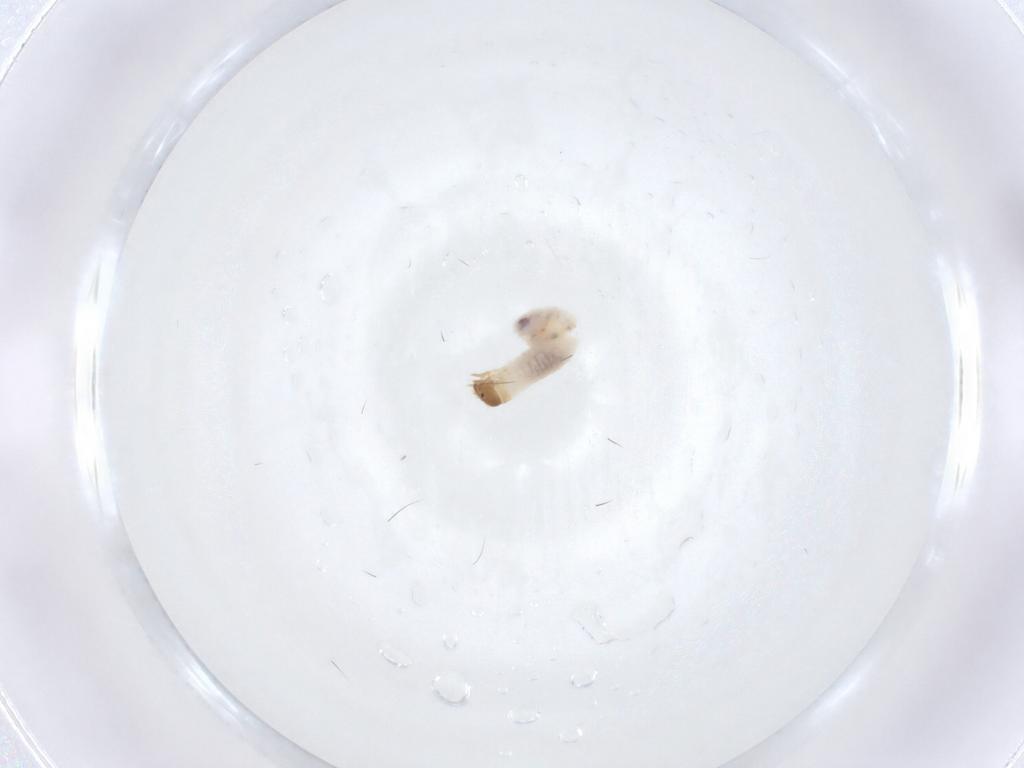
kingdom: Animalia
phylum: Arthropoda
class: Insecta
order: Coleoptera
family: Oedemeridae
